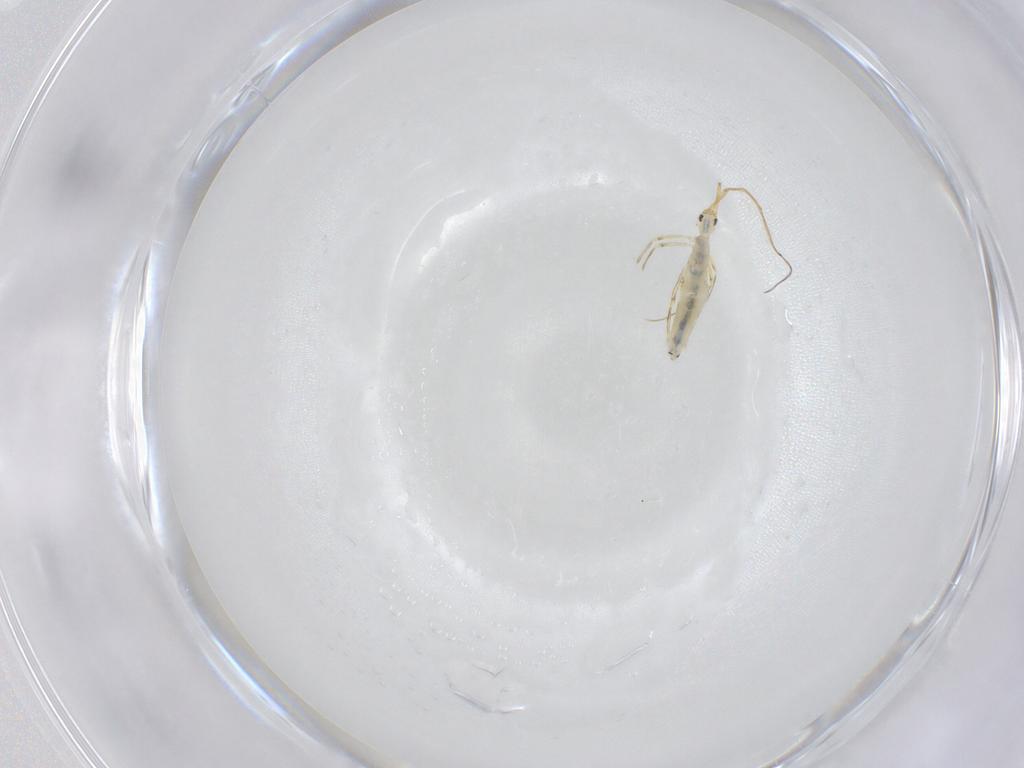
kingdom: Animalia
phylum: Arthropoda
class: Collembola
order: Entomobryomorpha
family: Entomobryidae
